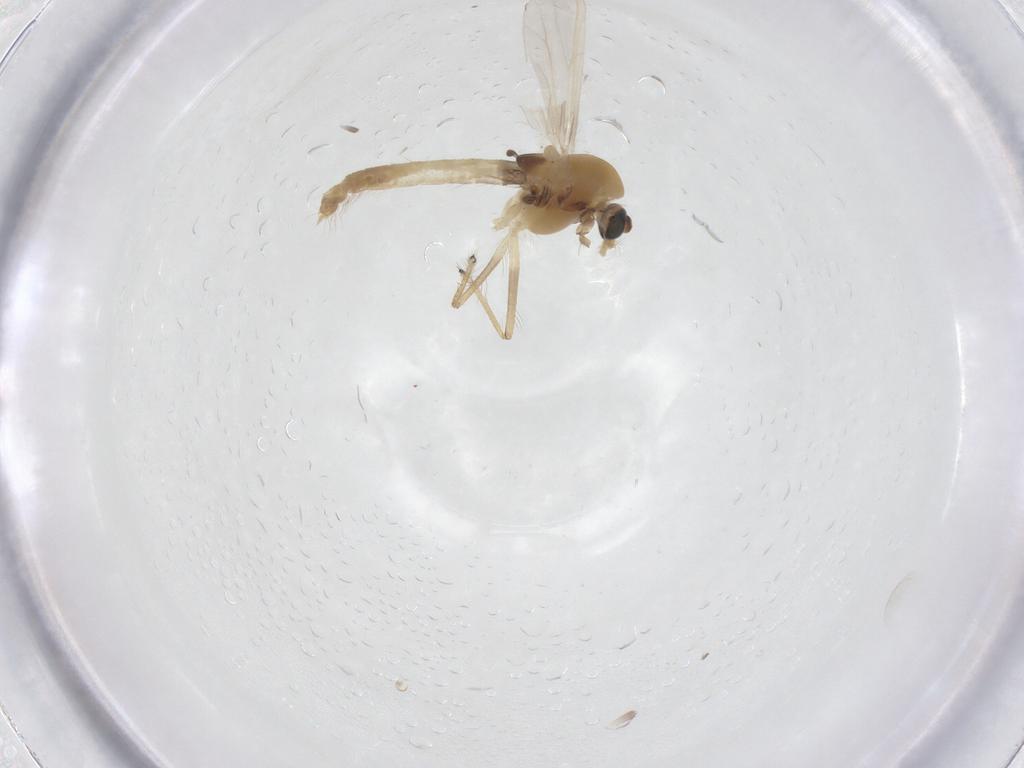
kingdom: Animalia
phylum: Arthropoda
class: Insecta
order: Diptera
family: Chironomidae
